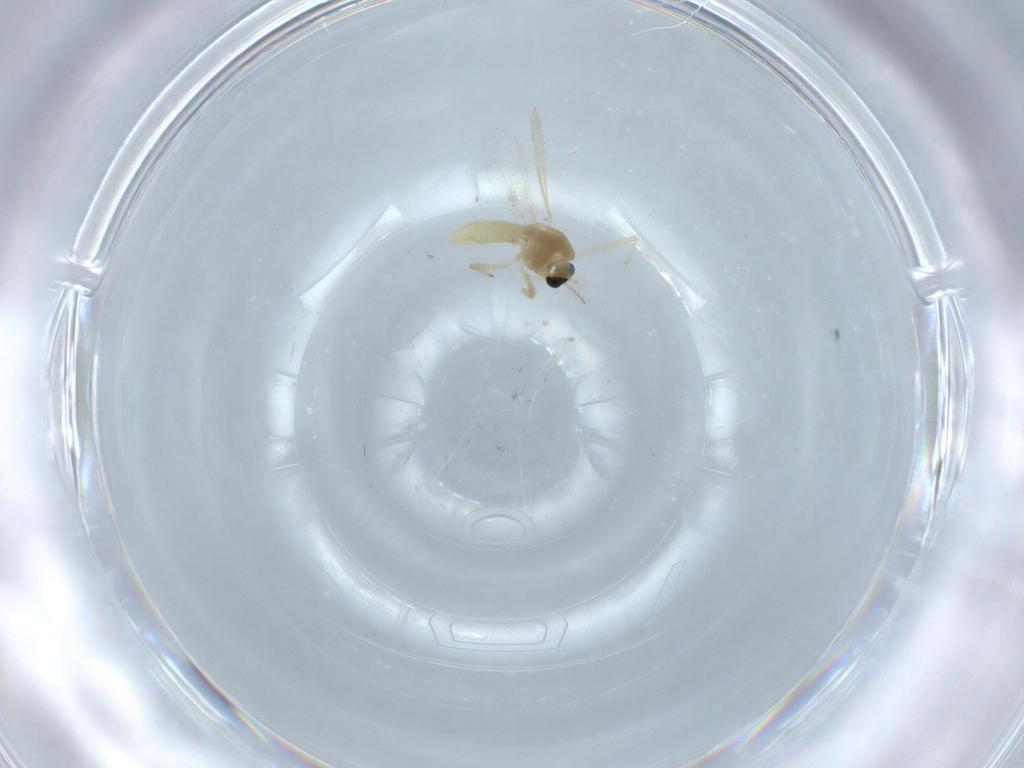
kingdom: Animalia
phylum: Arthropoda
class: Insecta
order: Diptera
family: Chironomidae
